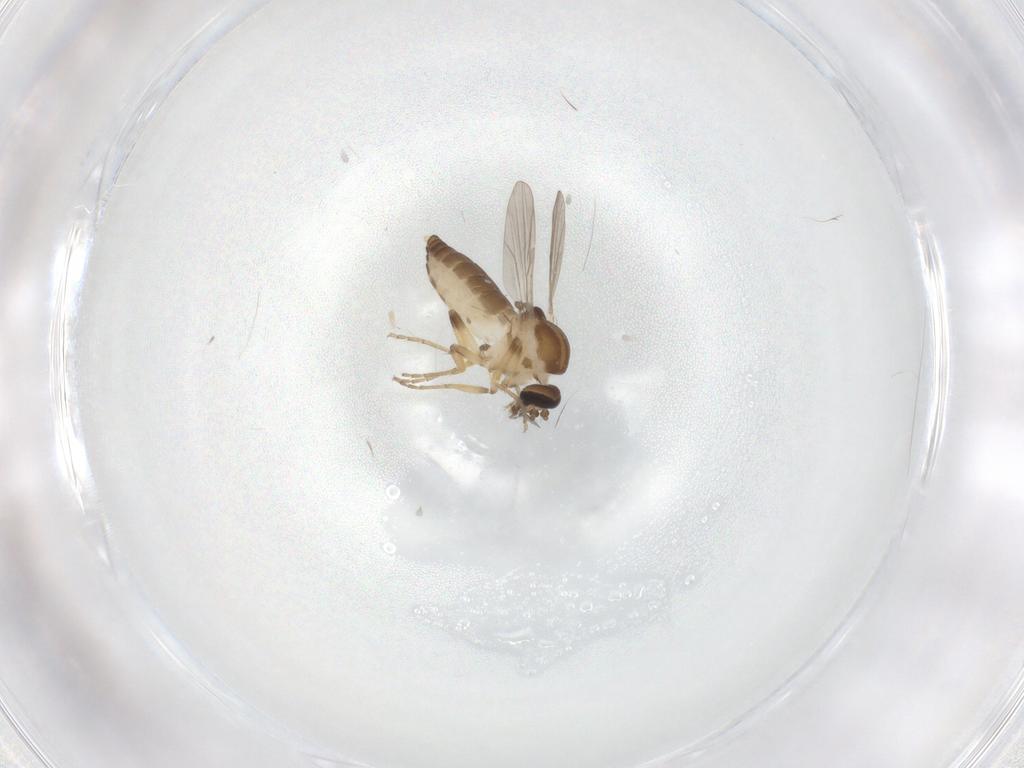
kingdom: Animalia
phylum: Arthropoda
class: Insecta
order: Diptera
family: Ceratopogonidae
